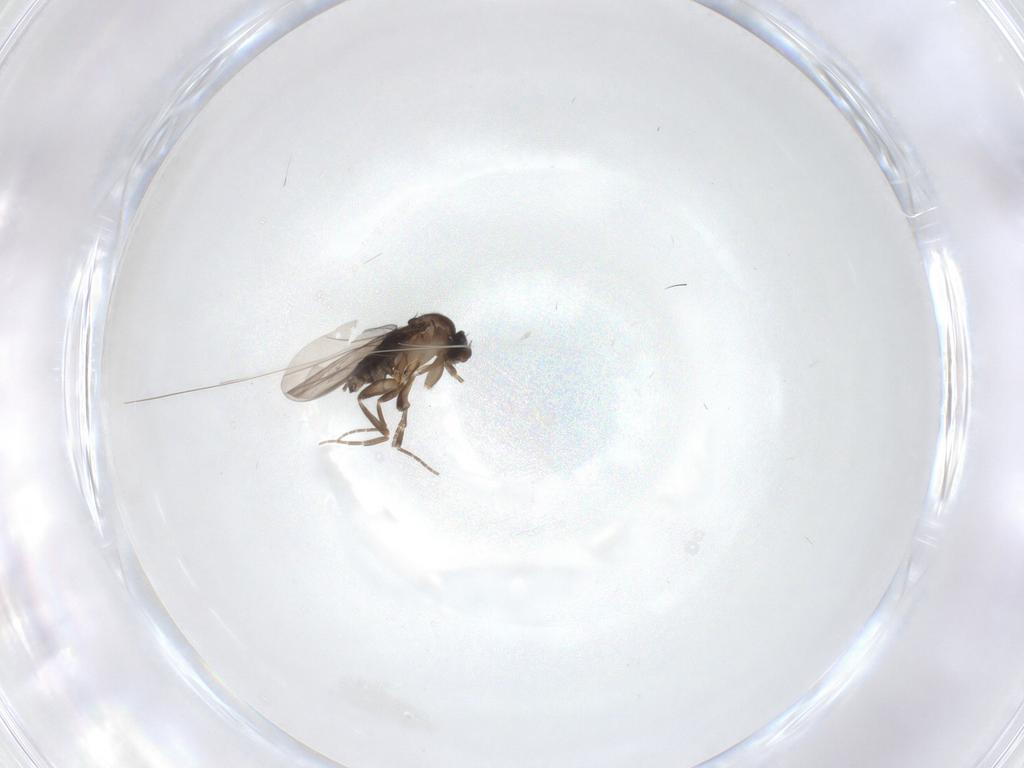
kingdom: Animalia
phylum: Arthropoda
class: Insecta
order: Diptera
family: Phoridae
